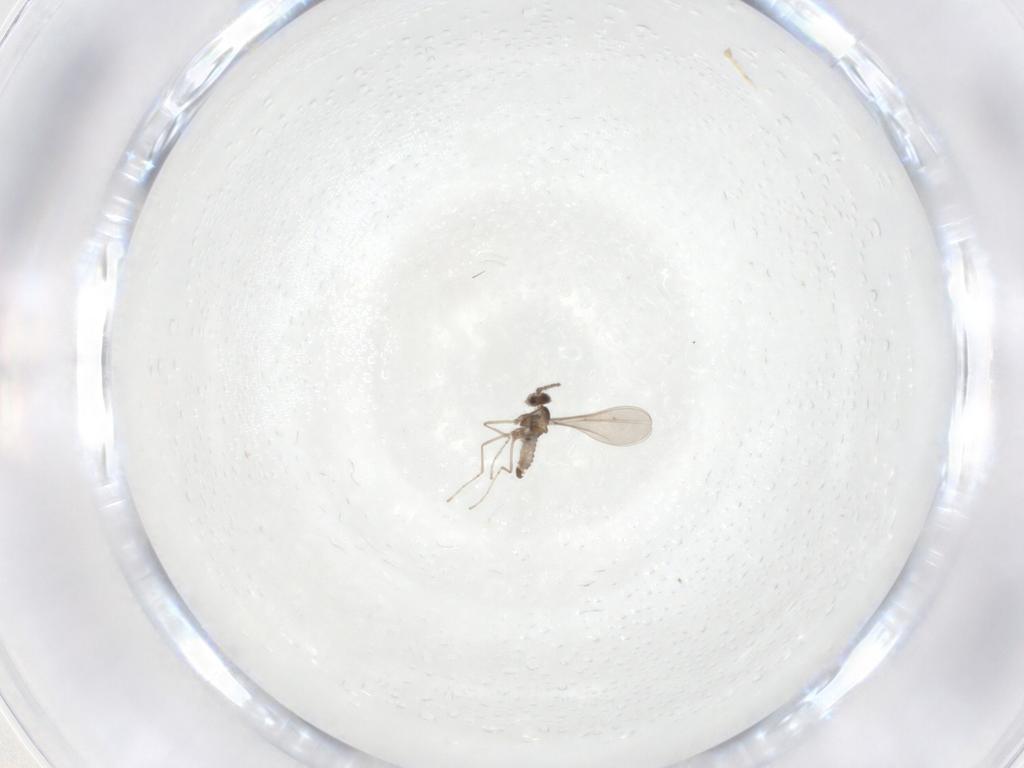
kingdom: Animalia
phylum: Arthropoda
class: Insecta
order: Diptera
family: Cecidomyiidae
